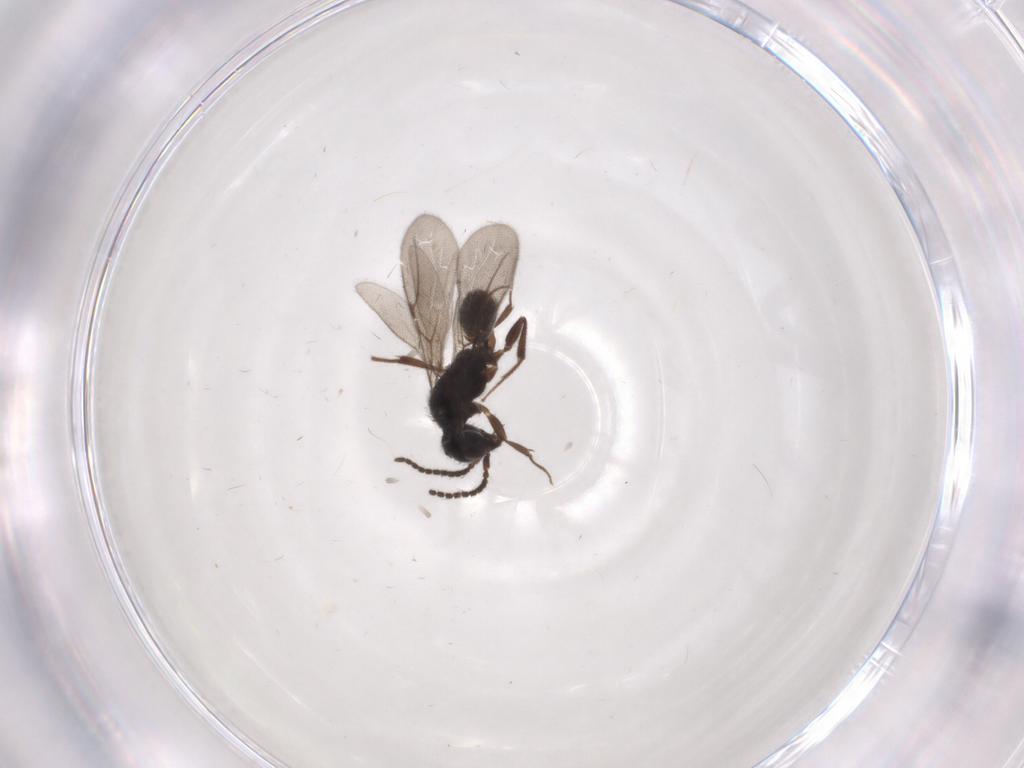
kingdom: Animalia
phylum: Arthropoda
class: Insecta
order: Hymenoptera
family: Bethylidae
